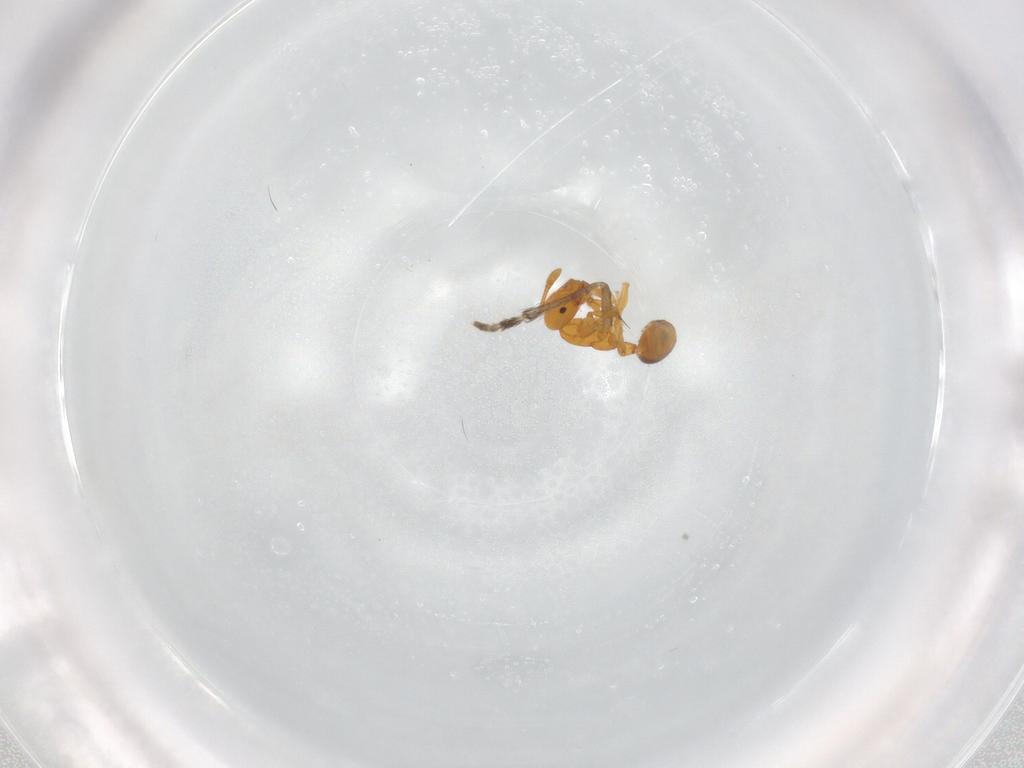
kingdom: Animalia
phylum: Arthropoda
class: Insecta
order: Hymenoptera
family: Formicidae
